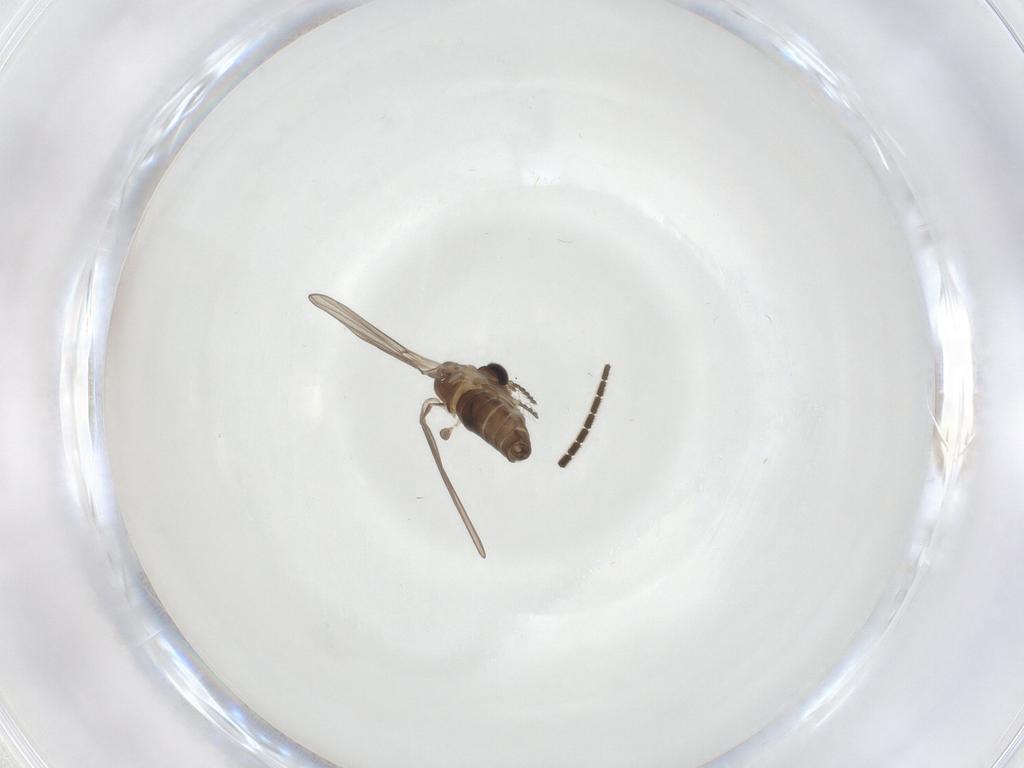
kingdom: Animalia
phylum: Arthropoda
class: Insecta
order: Diptera
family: Sciaridae
